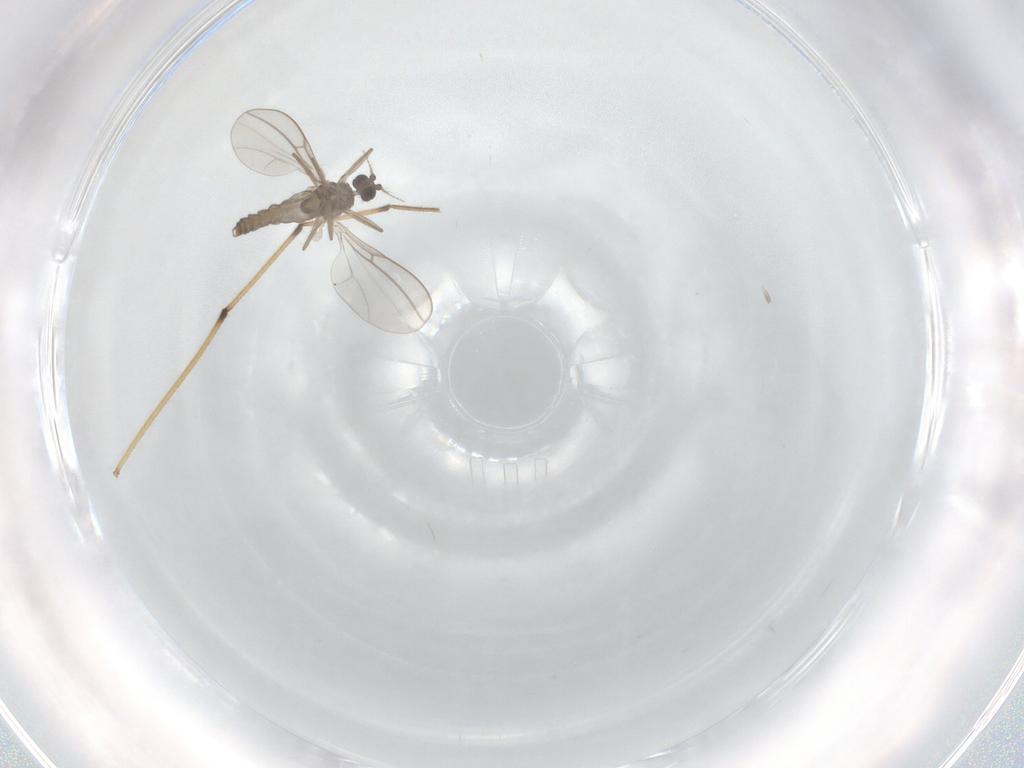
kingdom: Animalia
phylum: Arthropoda
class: Insecta
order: Diptera
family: Cecidomyiidae
